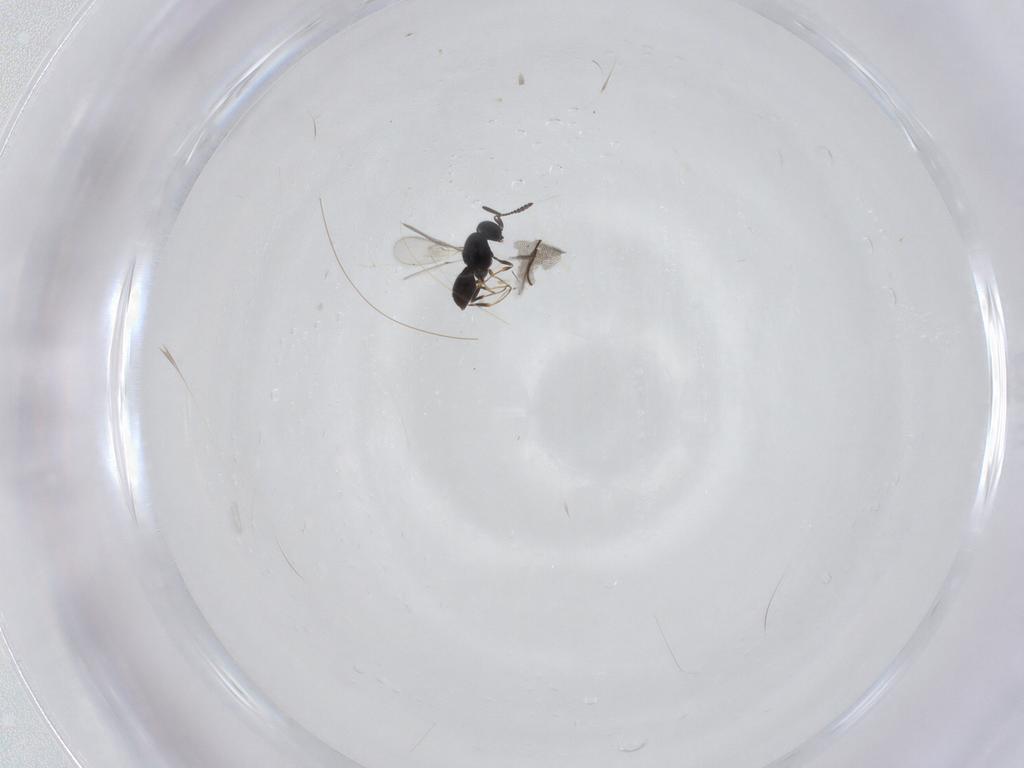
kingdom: Animalia
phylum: Arthropoda
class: Insecta
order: Hymenoptera
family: Scelionidae
